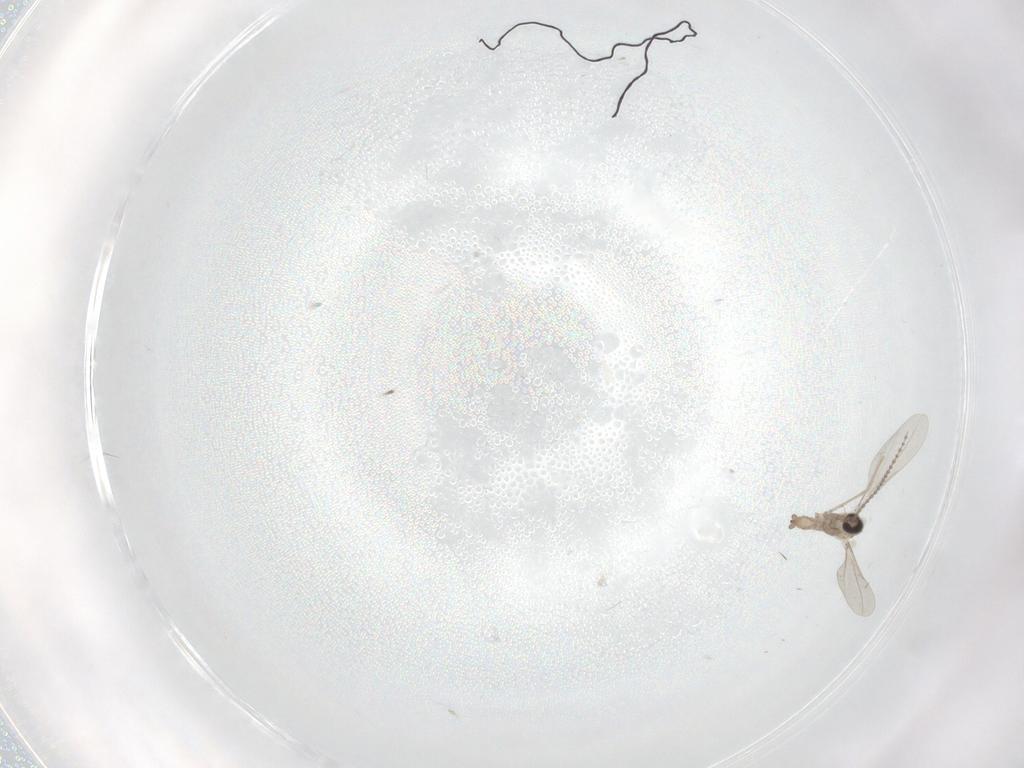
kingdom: Animalia
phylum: Arthropoda
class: Insecta
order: Diptera
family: Cecidomyiidae
